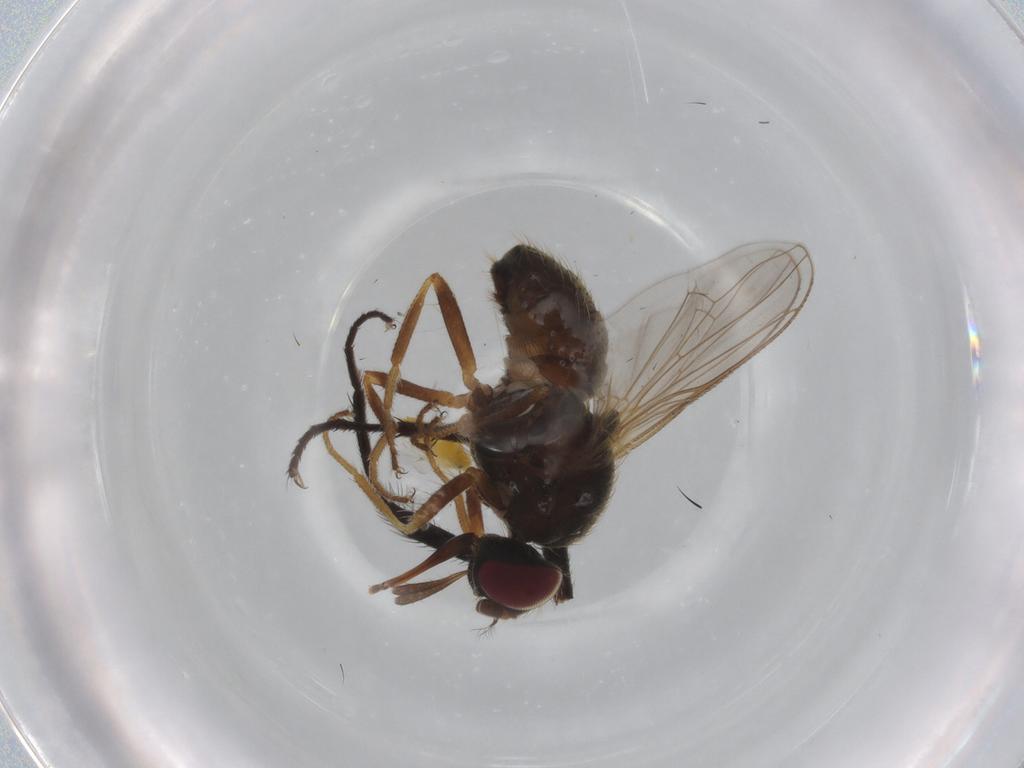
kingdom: Animalia
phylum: Arthropoda
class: Insecta
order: Diptera
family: Muscidae
